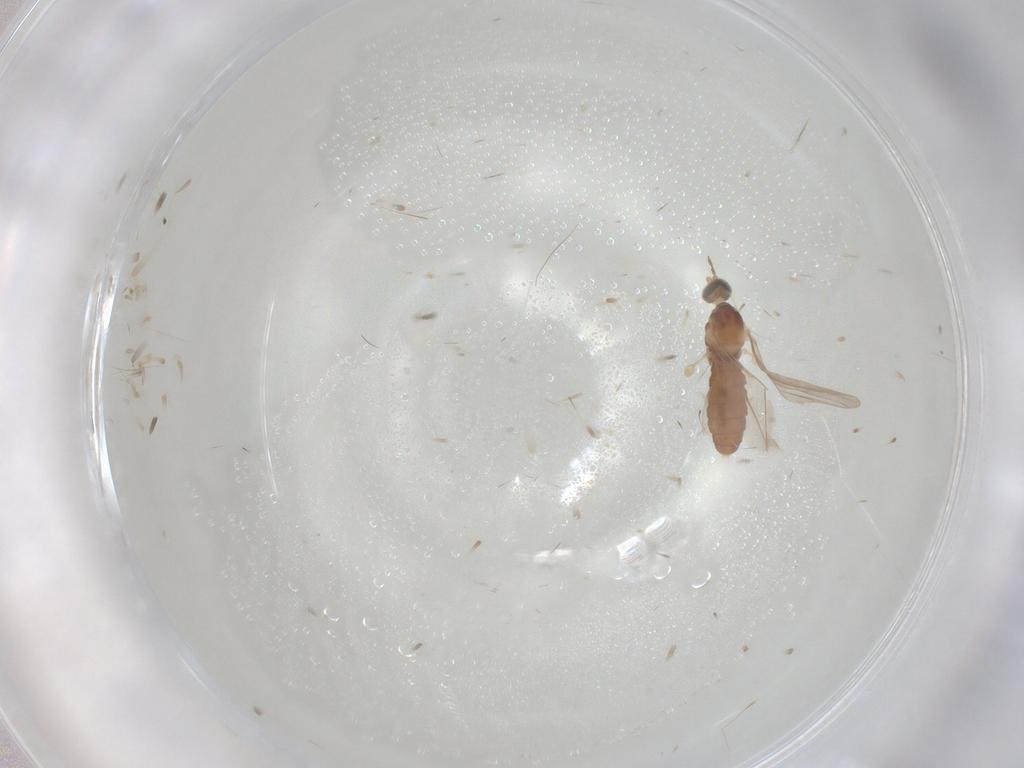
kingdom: Animalia
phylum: Arthropoda
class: Insecta
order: Diptera
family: Cecidomyiidae
